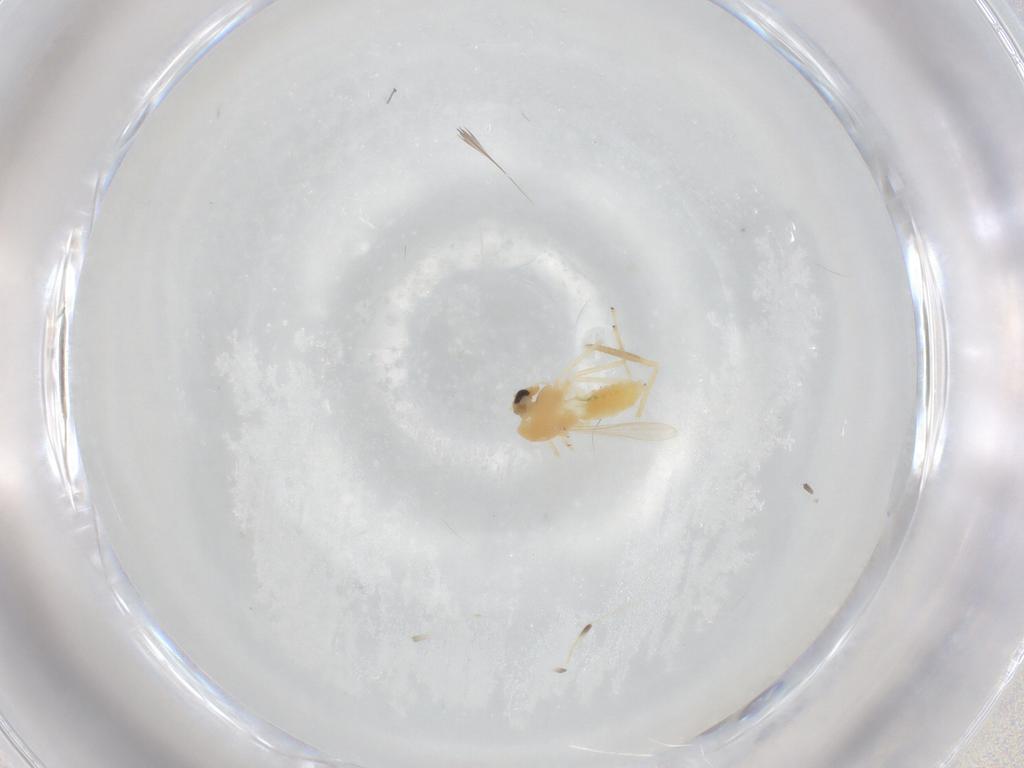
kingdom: Animalia
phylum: Arthropoda
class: Insecta
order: Diptera
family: Chironomidae
